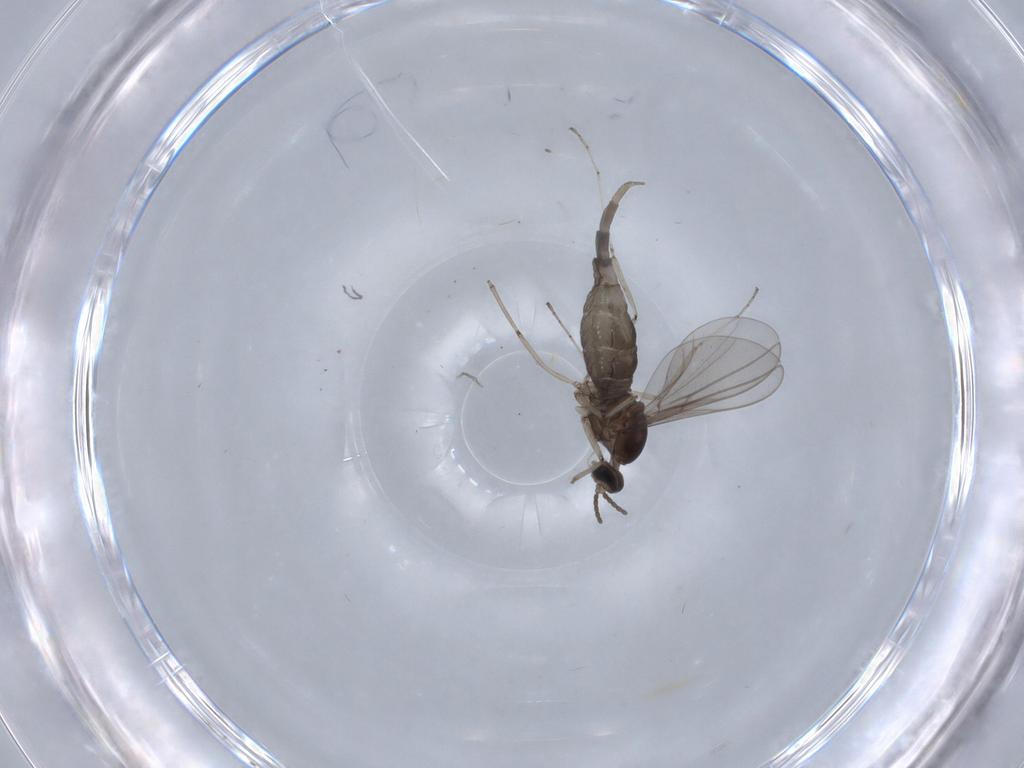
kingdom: Animalia
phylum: Arthropoda
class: Insecta
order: Diptera
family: Cecidomyiidae
